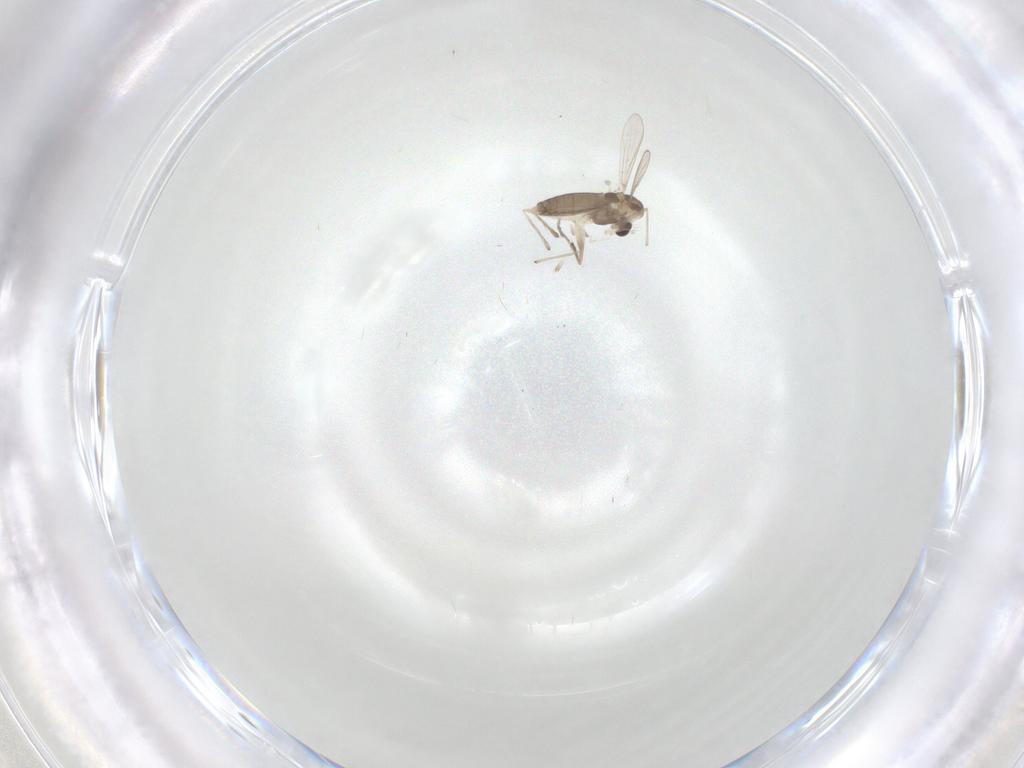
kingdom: Animalia
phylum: Arthropoda
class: Insecta
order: Diptera
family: Chironomidae
